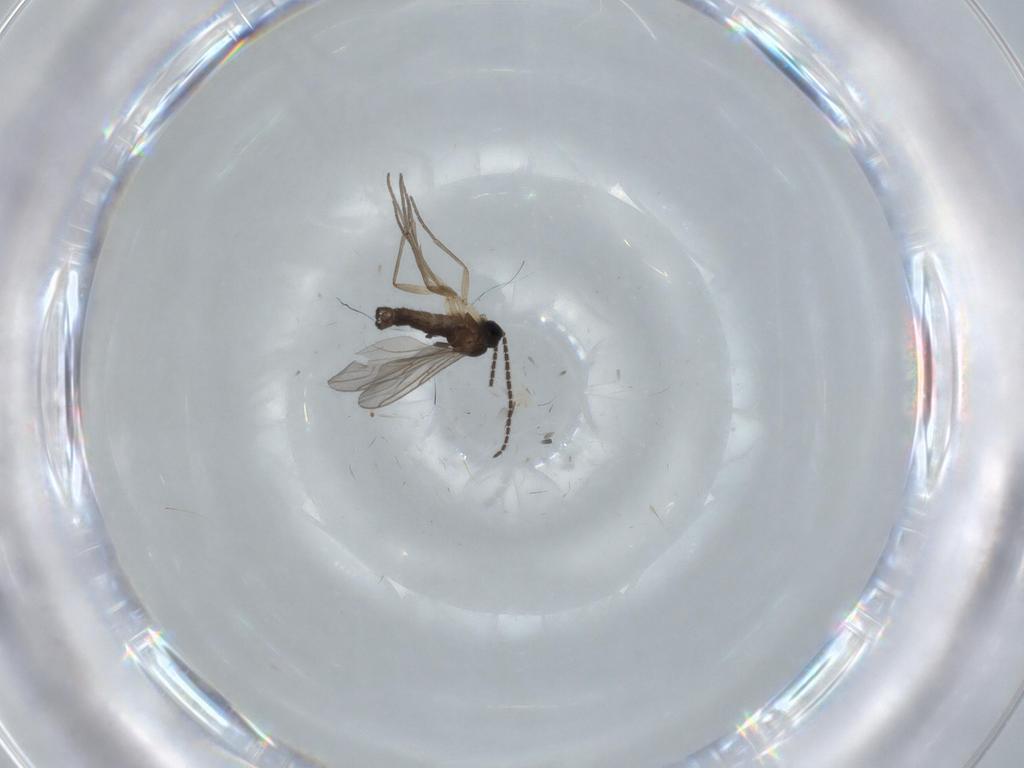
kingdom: Animalia
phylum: Arthropoda
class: Insecta
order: Diptera
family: Sciaridae
